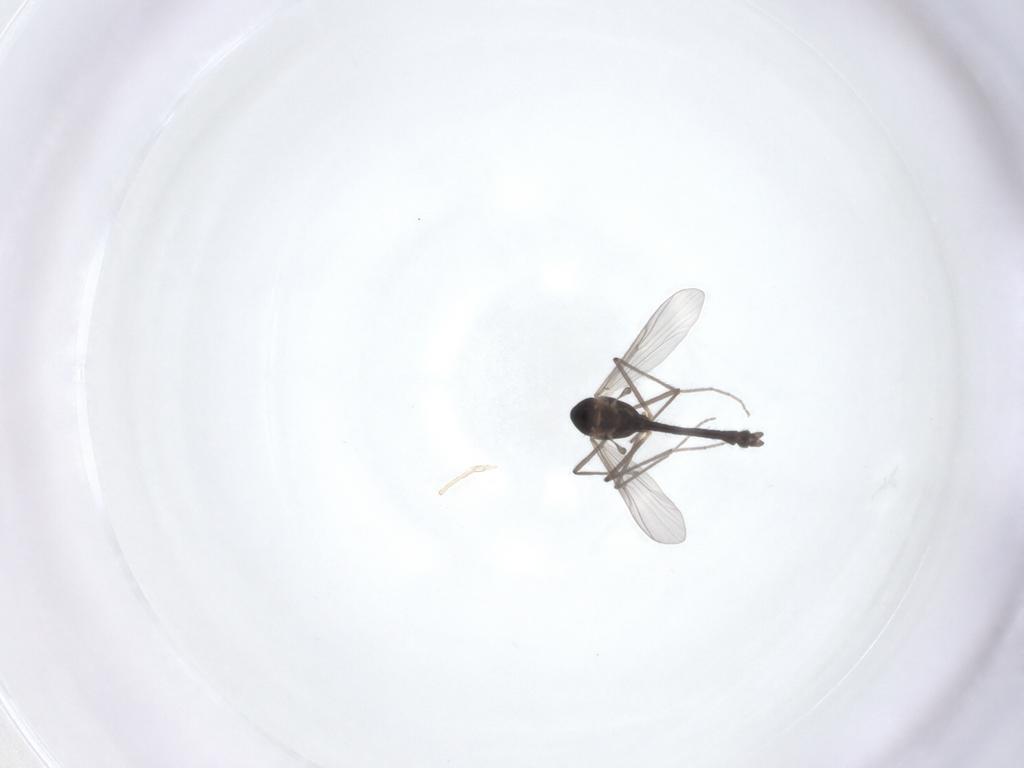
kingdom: Animalia
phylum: Arthropoda
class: Insecta
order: Diptera
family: Chironomidae
